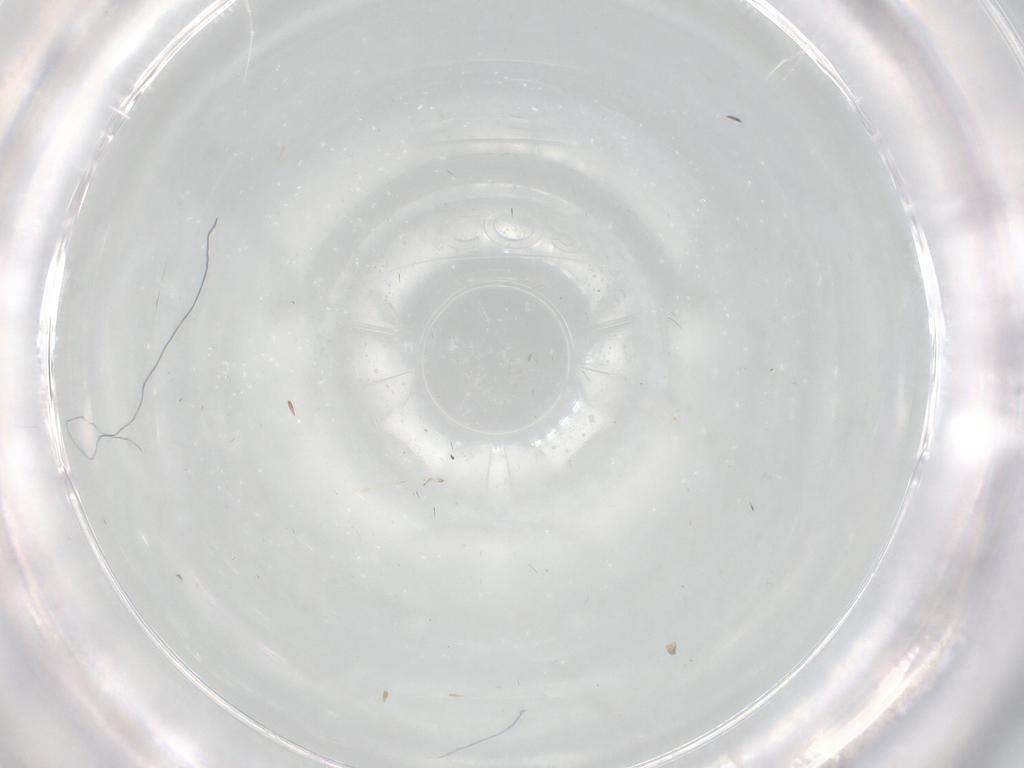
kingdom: Animalia
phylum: Arthropoda
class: Insecta
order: Diptera
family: Cecidomyiidae
